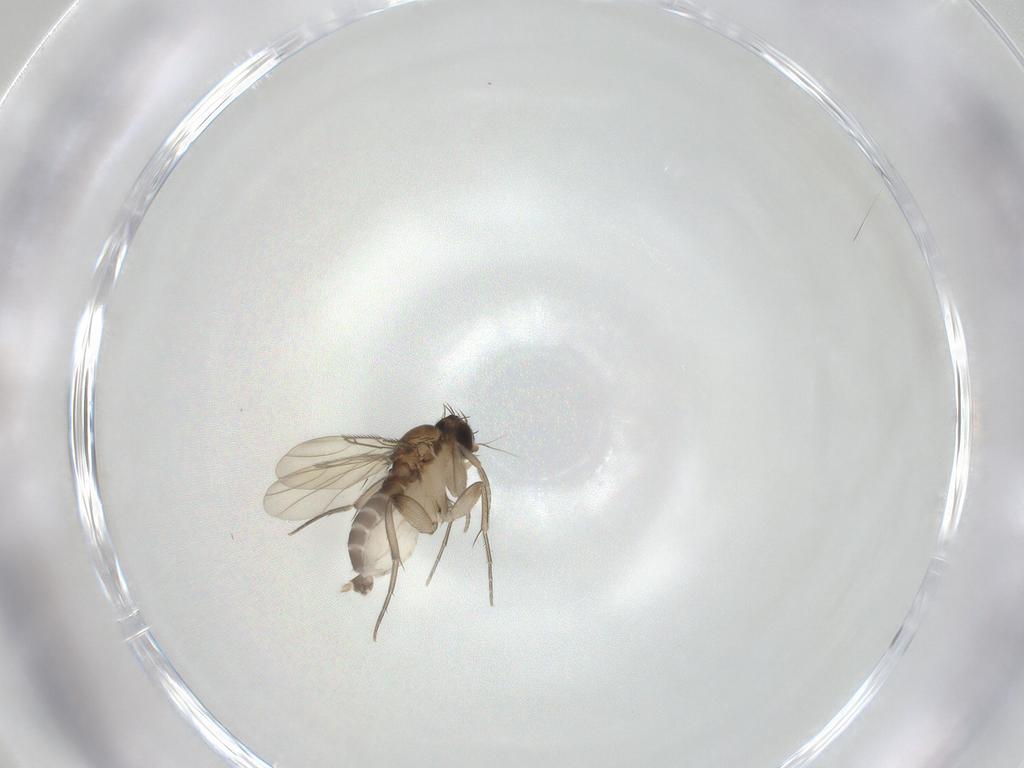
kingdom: Animalia
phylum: Arthropoda
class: Insecta
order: Diptera
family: Phoridae
